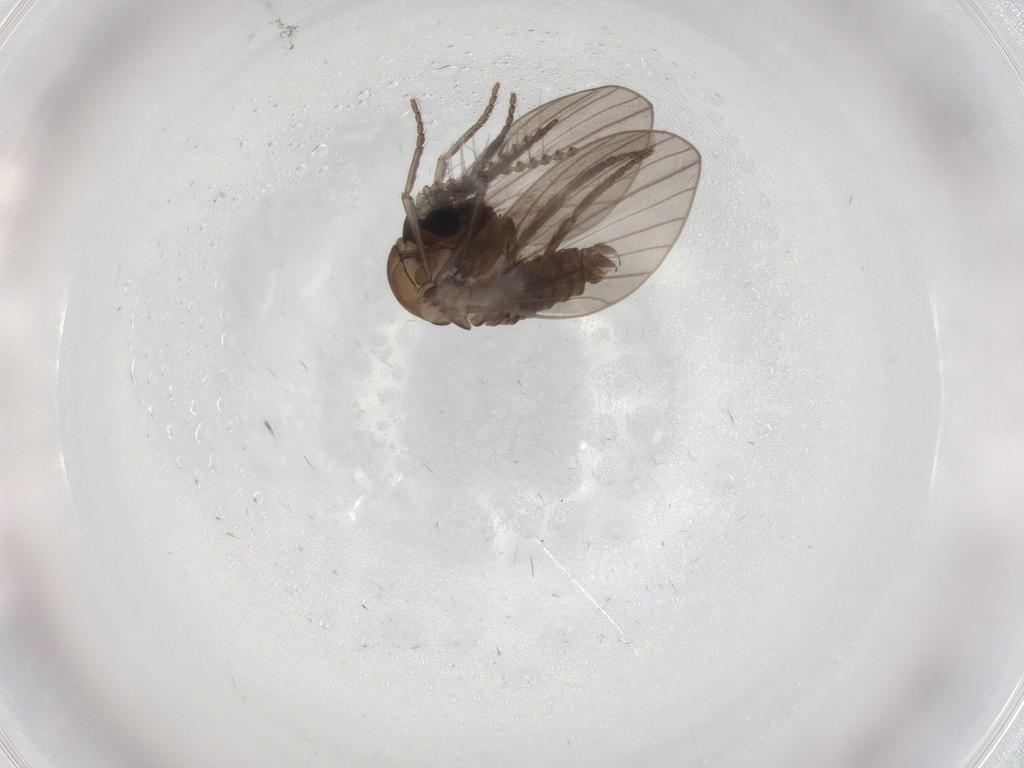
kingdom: Animalia
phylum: Arthropoda
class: Insecta
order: Diptera
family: Psychodidae
